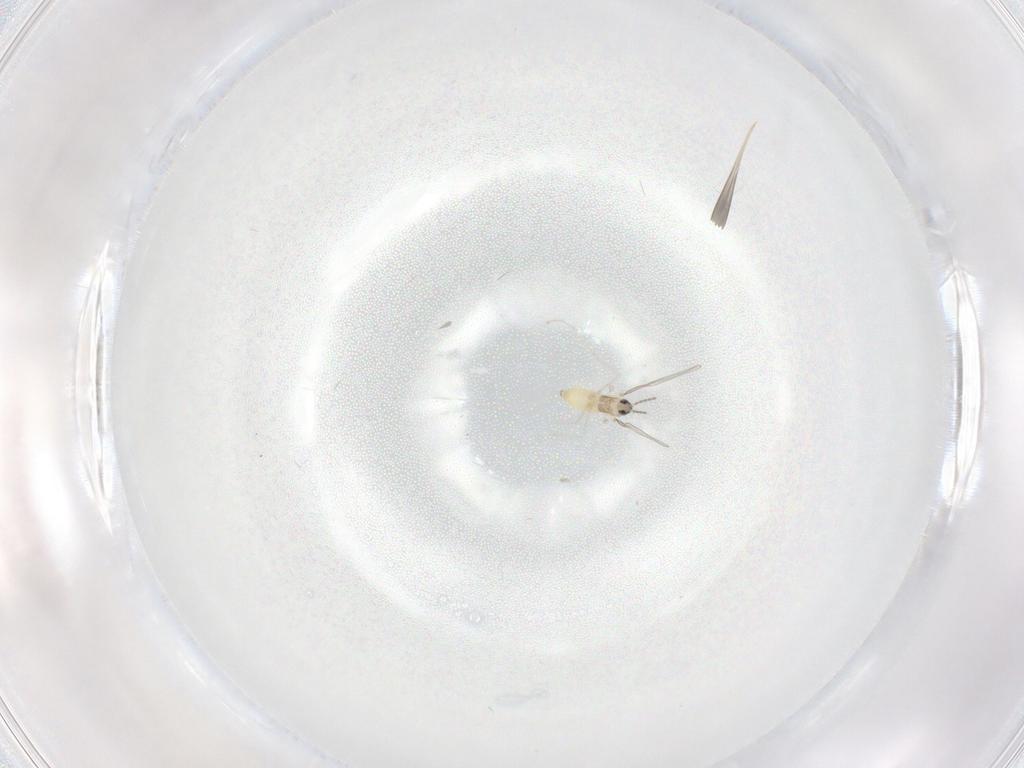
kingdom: Animalia
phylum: Arthropoda
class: Insecta
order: Diptera
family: Cecidomyiidae
